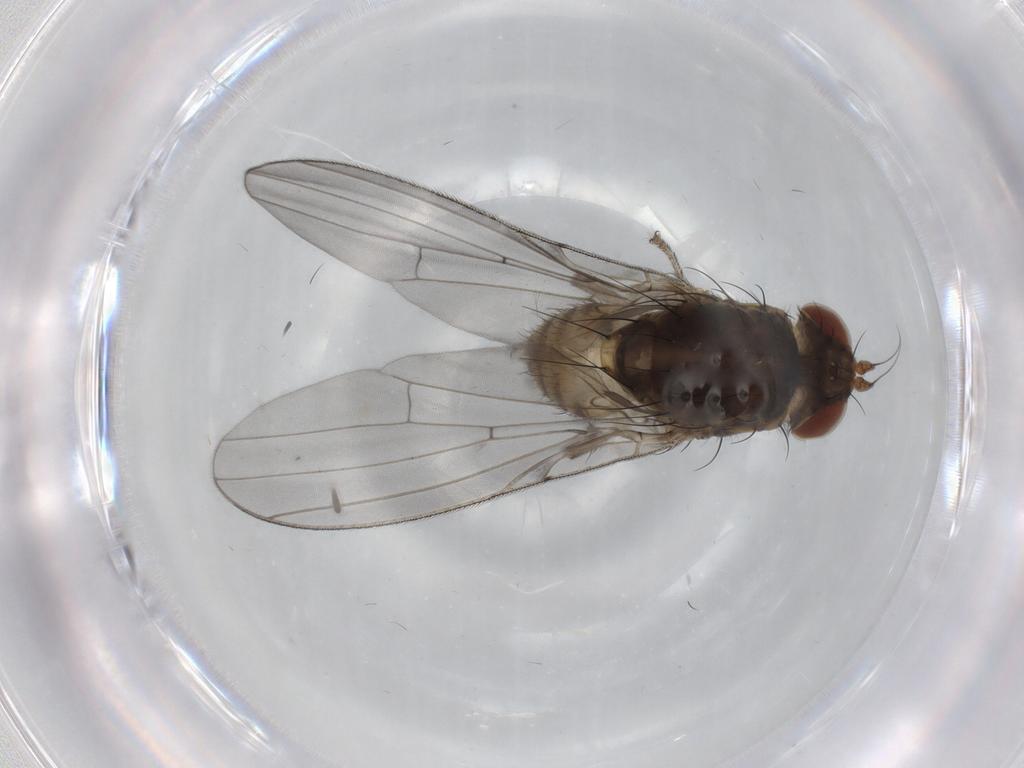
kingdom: Animalia
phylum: Arthropoda
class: Insecta
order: Diptera
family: Lauxaniidae
